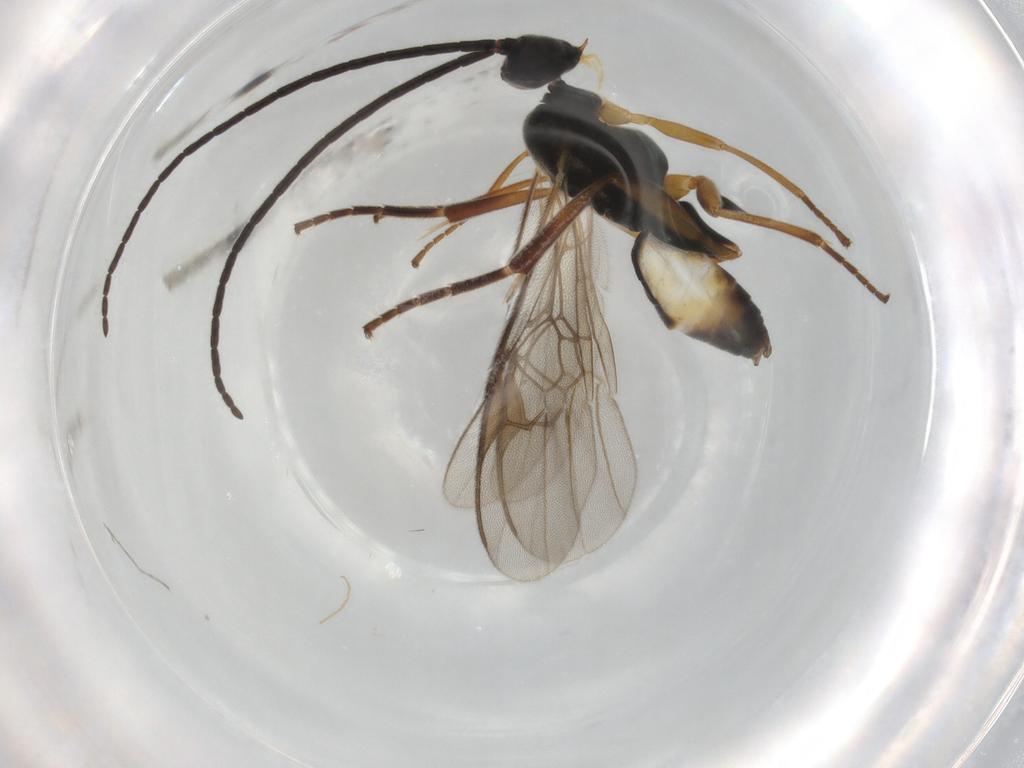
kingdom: Animalia
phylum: Arthropoda
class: Insecta
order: Hymenoptera
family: Braconidae
